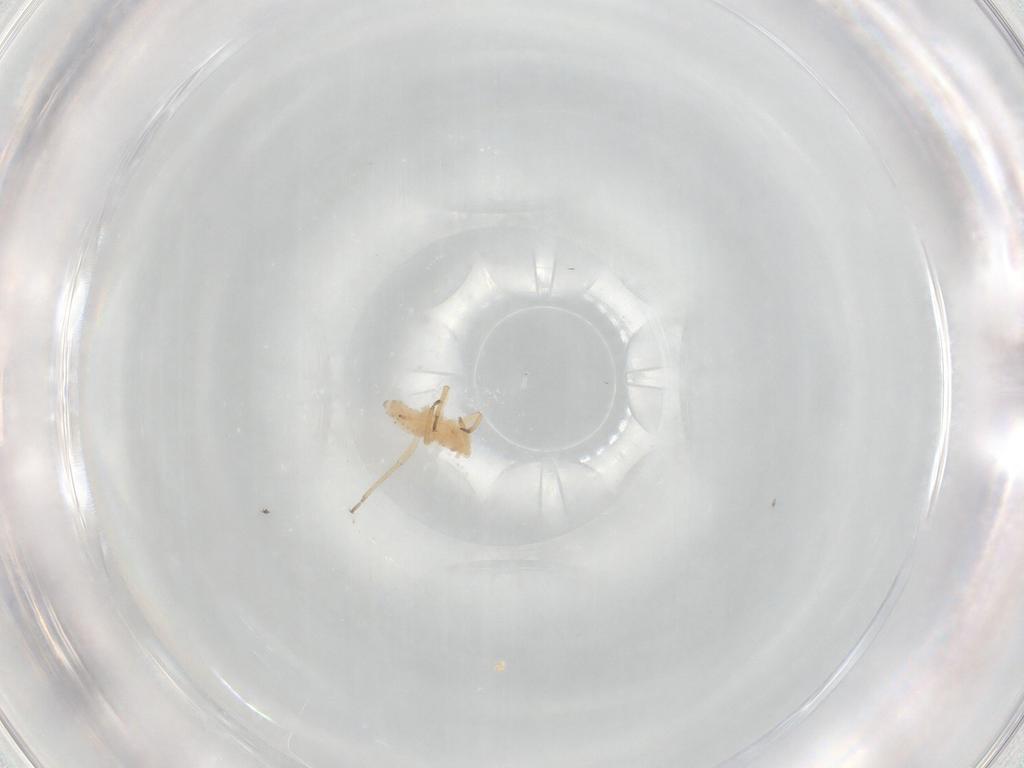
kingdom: Animalia
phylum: Arthropoda
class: Insecta
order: Hemiptera
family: Aphididae
